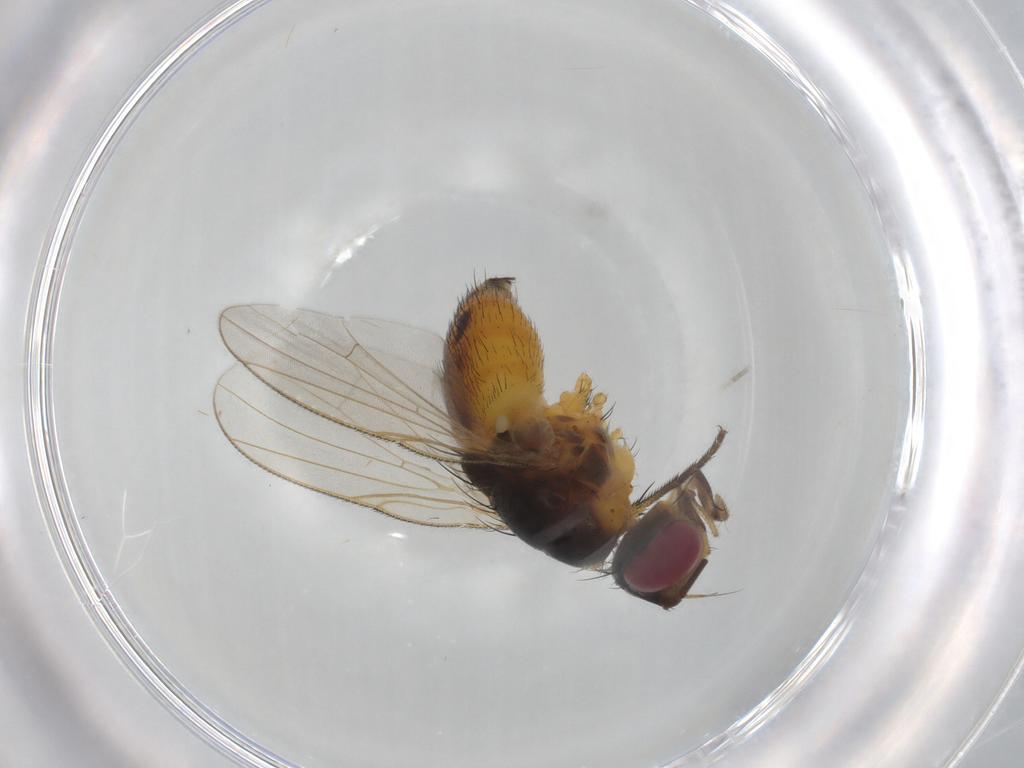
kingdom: Animalia
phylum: Arthropoda
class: Insecta
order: Diptera
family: Muscidae
